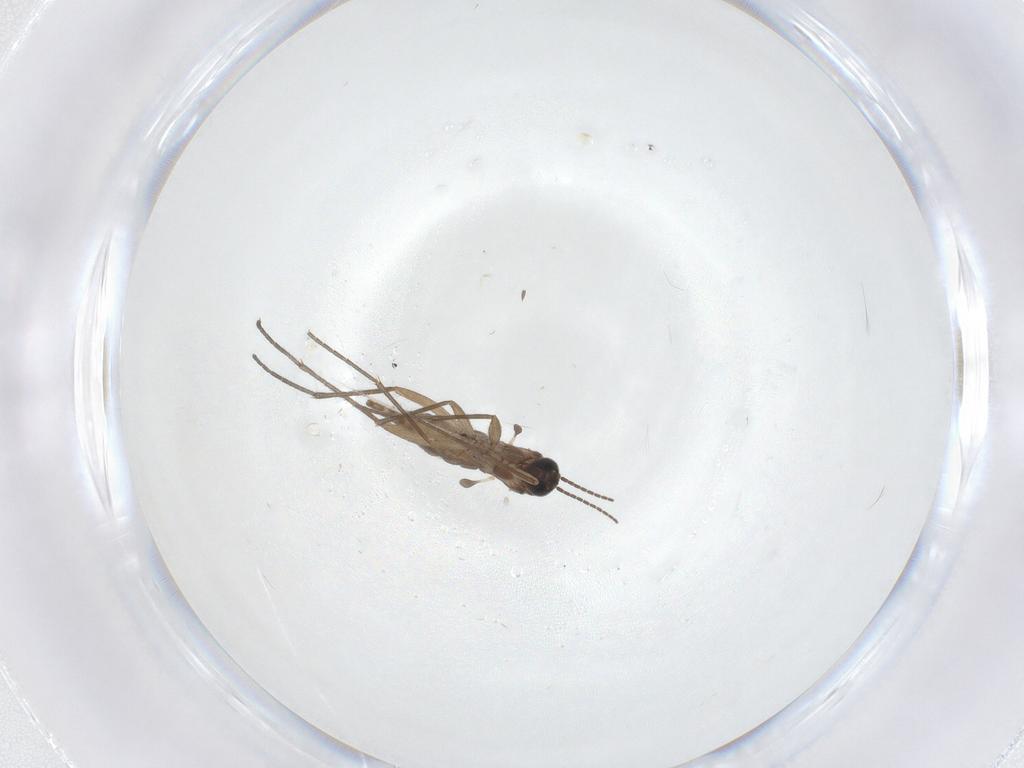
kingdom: Animalia
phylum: Arthropoda
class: Insecta
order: Diptera
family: Sciaridae
